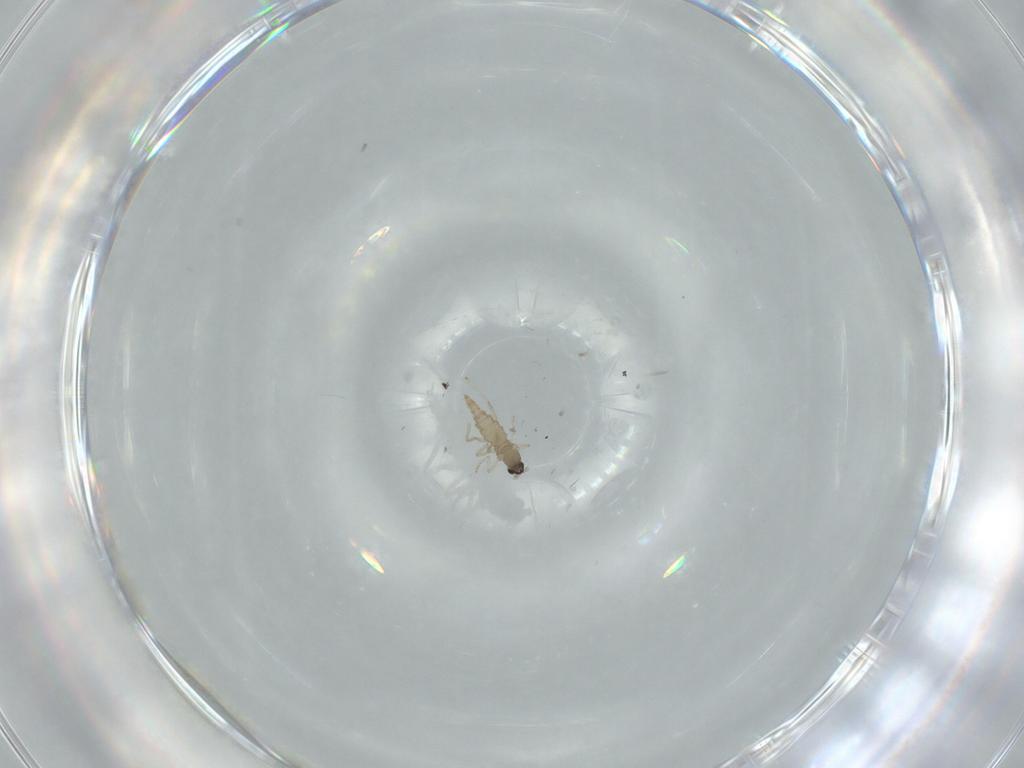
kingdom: Animalia
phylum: Arthropoda
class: Insecta
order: Diptera
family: Cecidomyiidae
